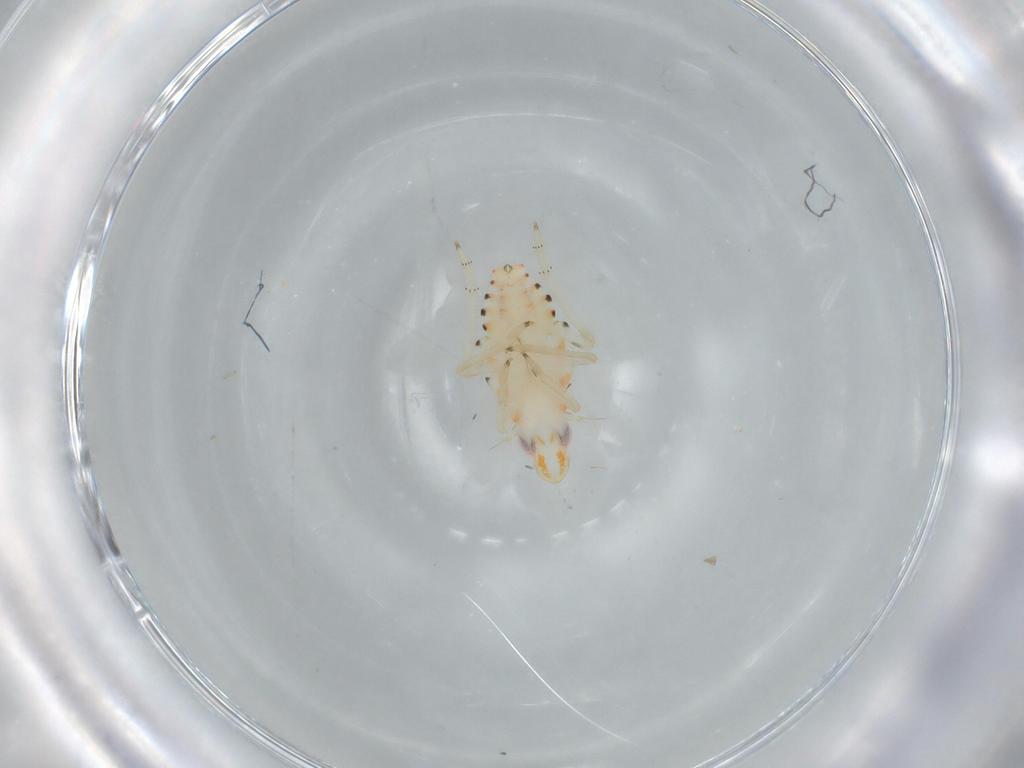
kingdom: Animalia
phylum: Arthropoda
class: Insecta
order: Hemiptera
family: Tropiduchidae
